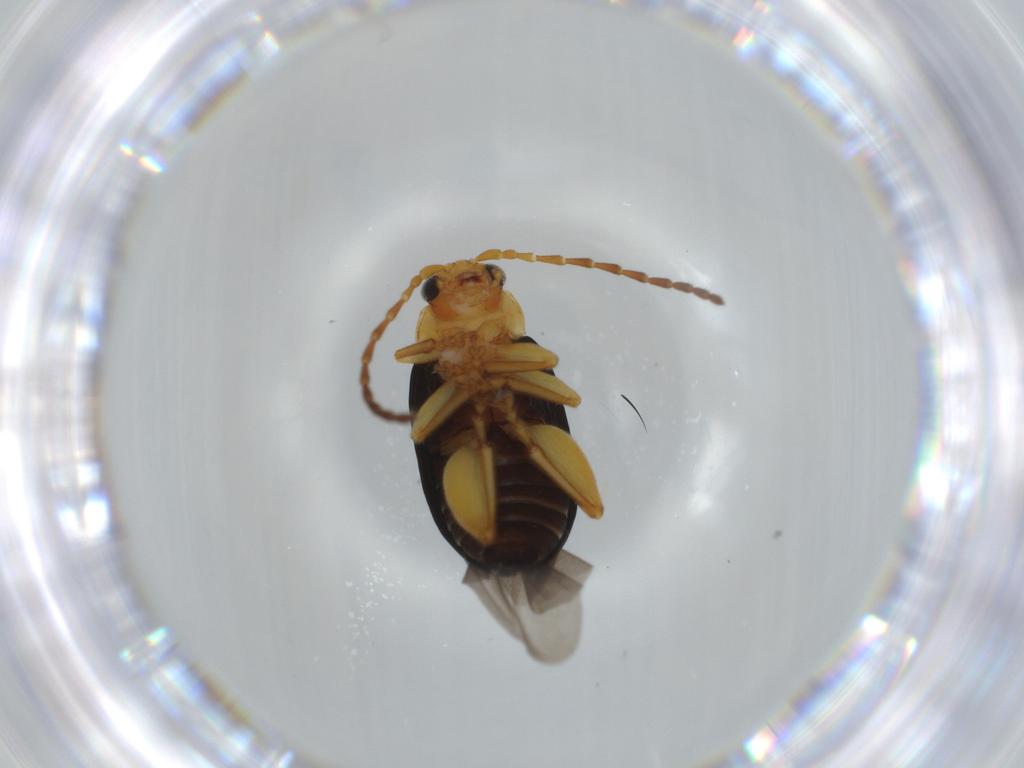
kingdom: Animalia
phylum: Arthropoda
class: Insecta
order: Coleoptera
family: Chrysomelidae
